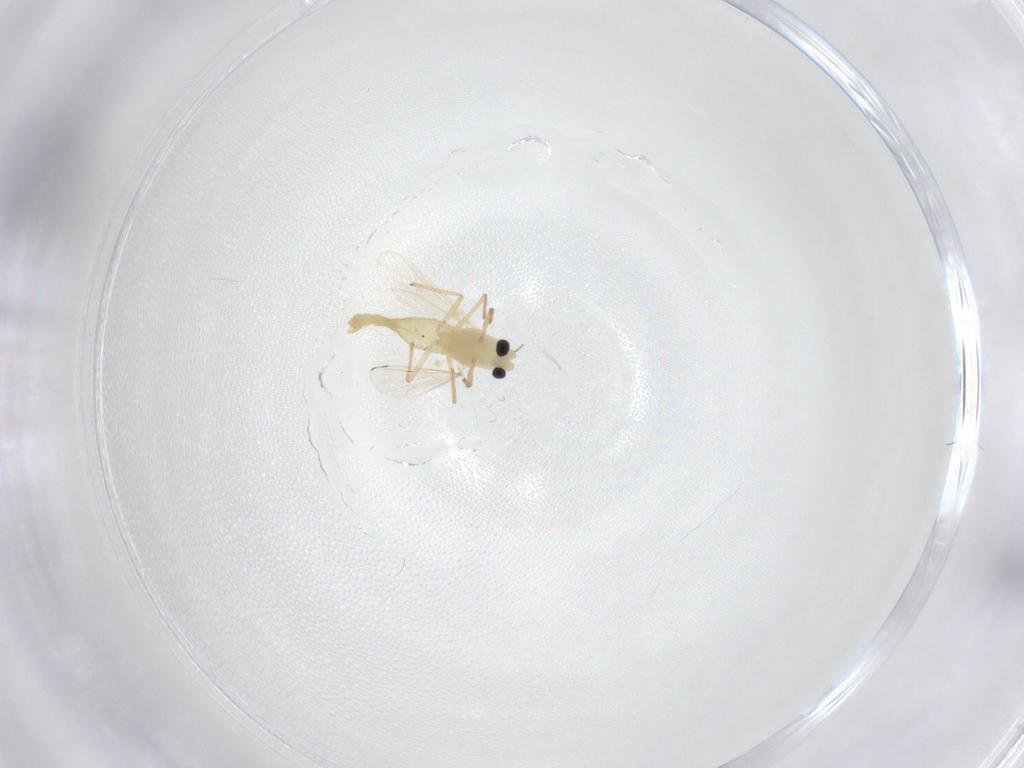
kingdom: Animalia
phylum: Arthropoda
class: Insecta
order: Diptera
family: Chironomidae
